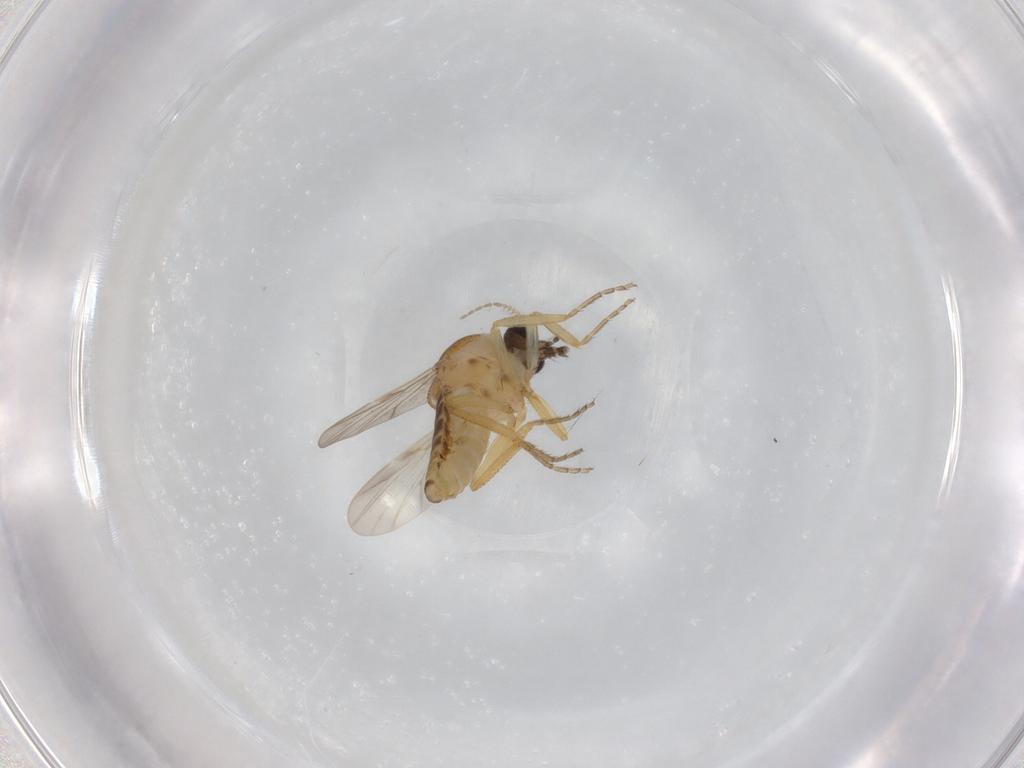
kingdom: Animalia
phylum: Arthropoda
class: Insecta
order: Diptera
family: Ceratopogonidae
